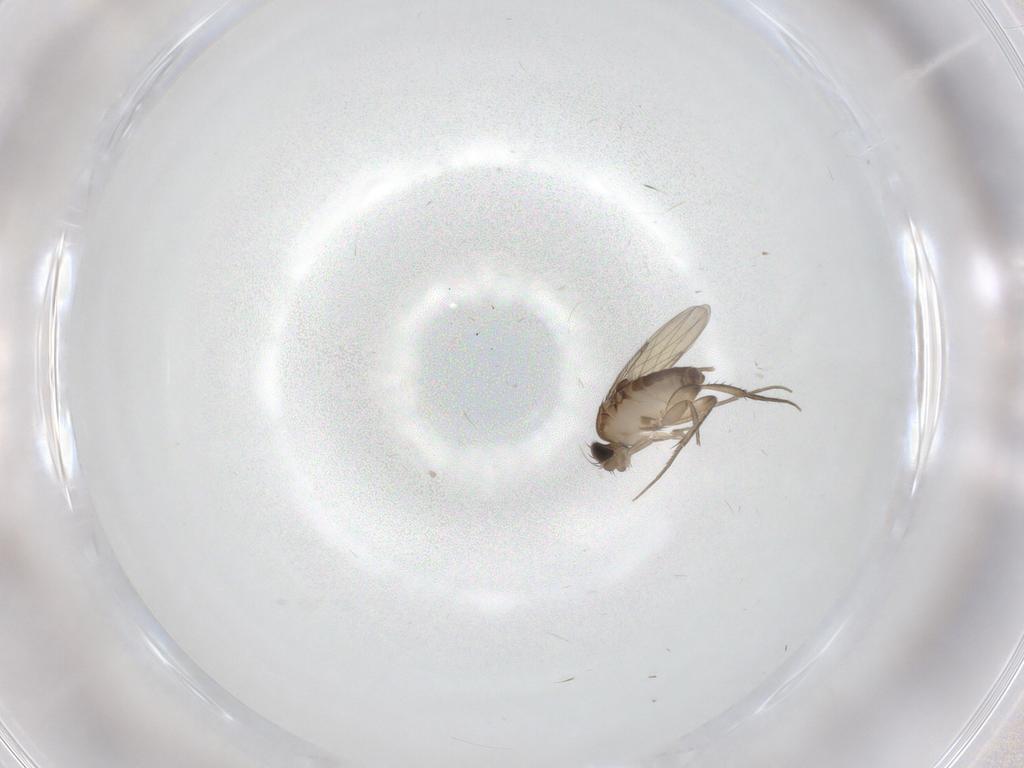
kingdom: Animalia
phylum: Arthropoda
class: Insecta
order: Diptera
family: Phoridae
